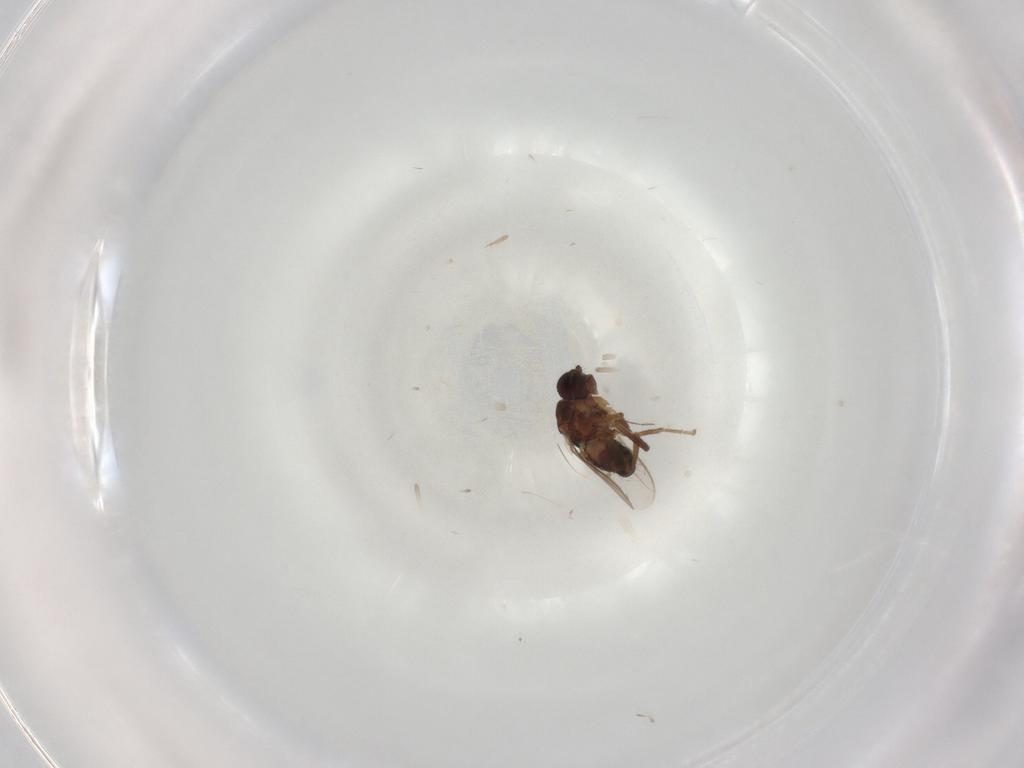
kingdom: Animalia
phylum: Arthropoda
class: Insecta
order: Diptera
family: Sphaeroceridae
